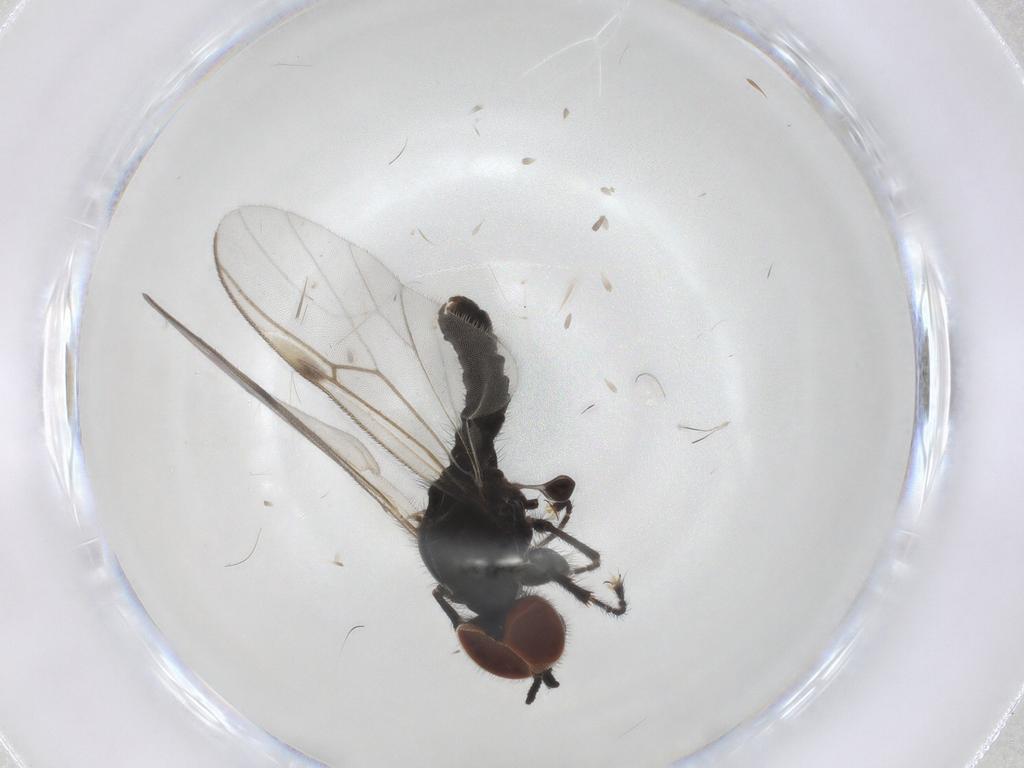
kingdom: Animalia
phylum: Arthropoda
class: Insecta
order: Diptera
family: Bibionidae
